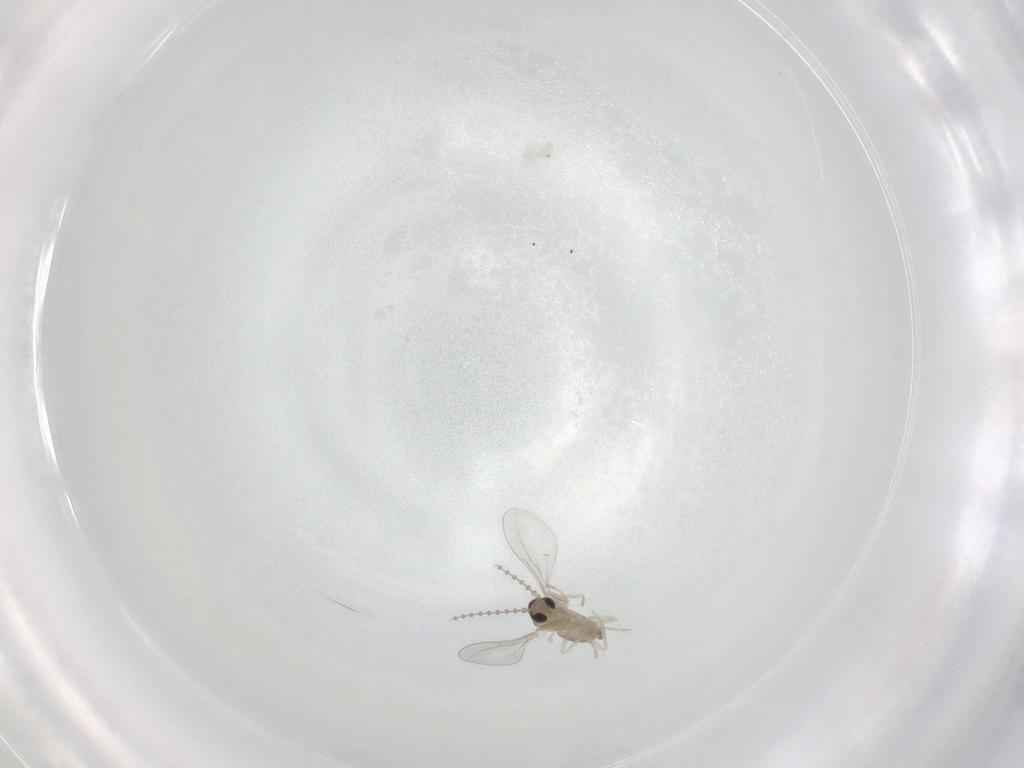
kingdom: Animalia
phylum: Arthropoda
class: Insecta
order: Diptera
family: Cecidomyiidae
